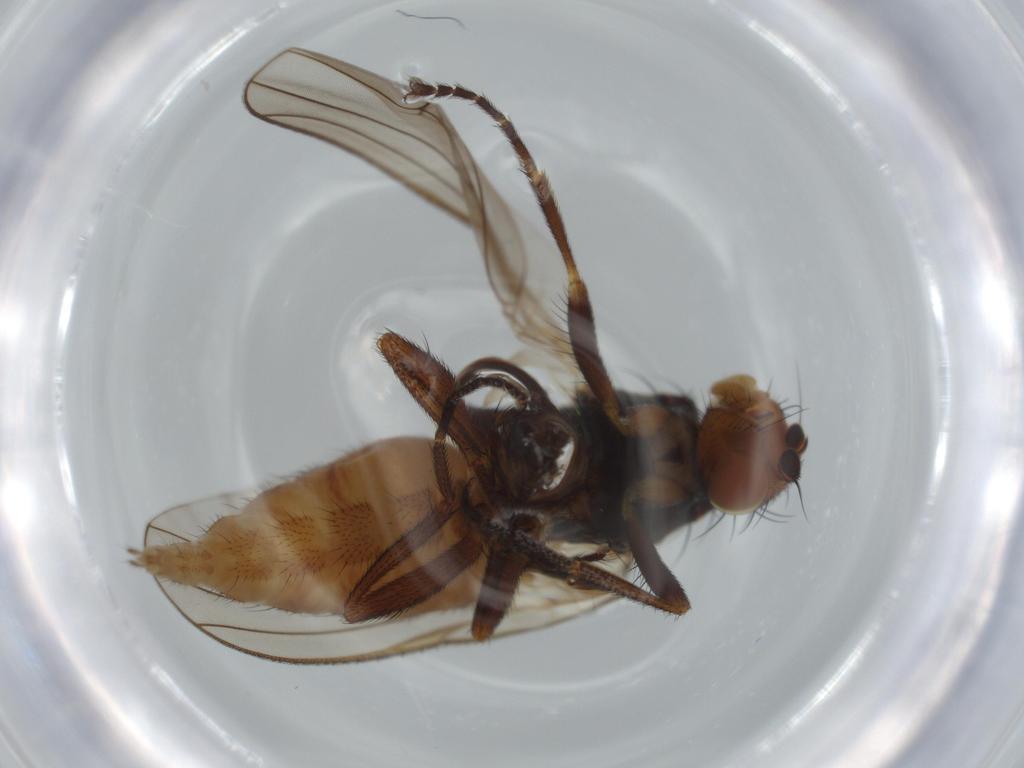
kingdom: Animalia
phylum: Arthropoda
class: Insecta
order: Diptera
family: Heleomyzidae
